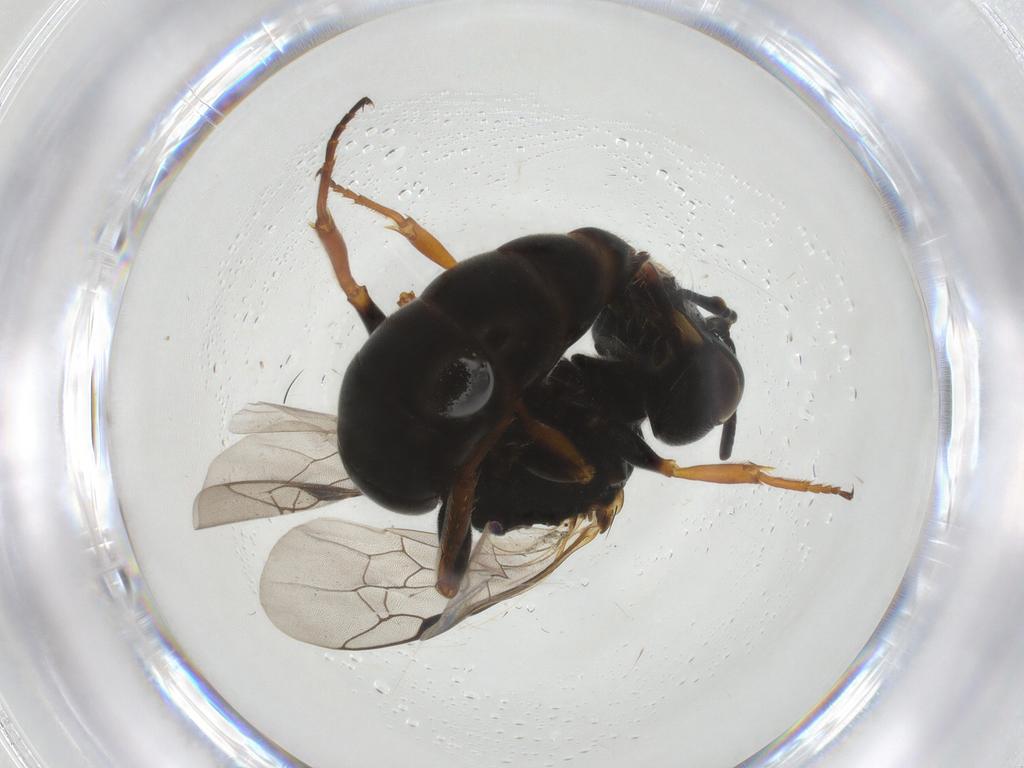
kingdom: Animalia
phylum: Arthropoda
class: Insecta
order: Hymenoptera
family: Pemphredonidae
